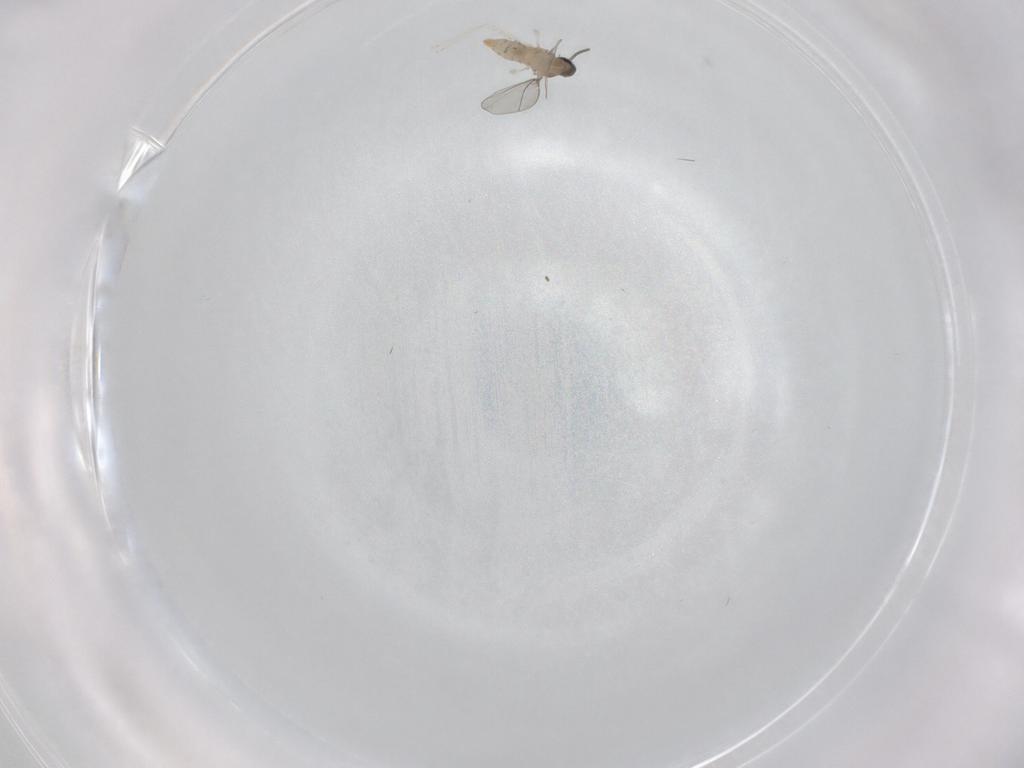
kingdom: Animalia
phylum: Arthropoda
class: Insecta
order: Diptera
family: Cecidomyiidae
